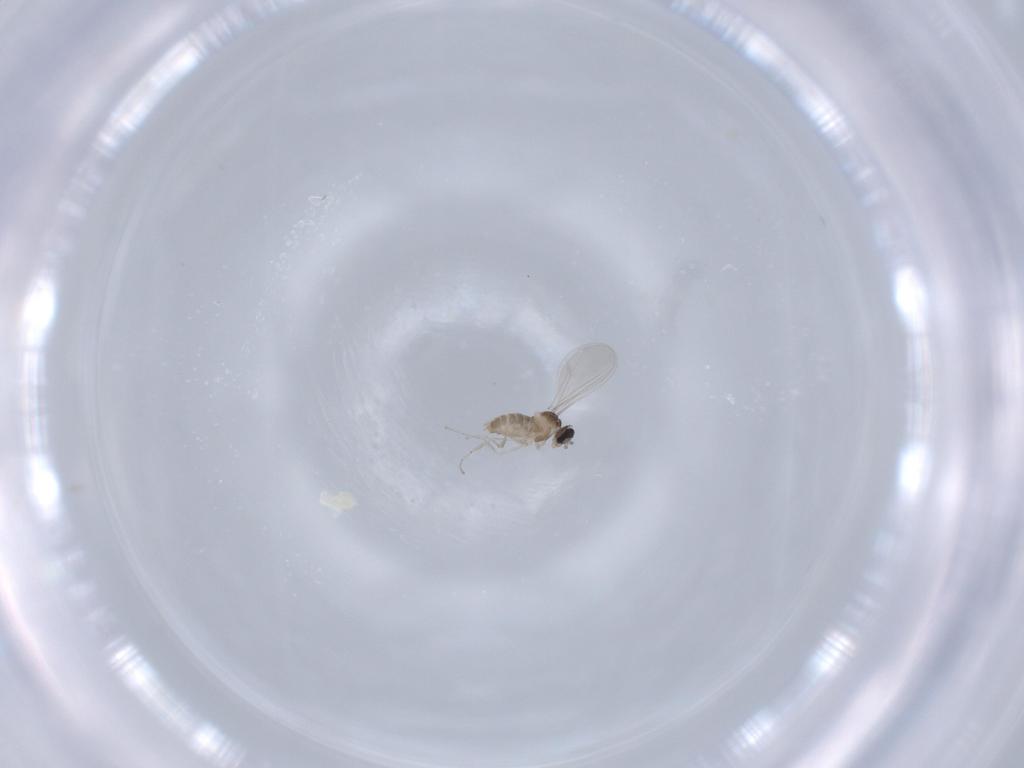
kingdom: Animalia
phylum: Arthropoda
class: Insecta
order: Diptera
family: Cecidomyiidae
